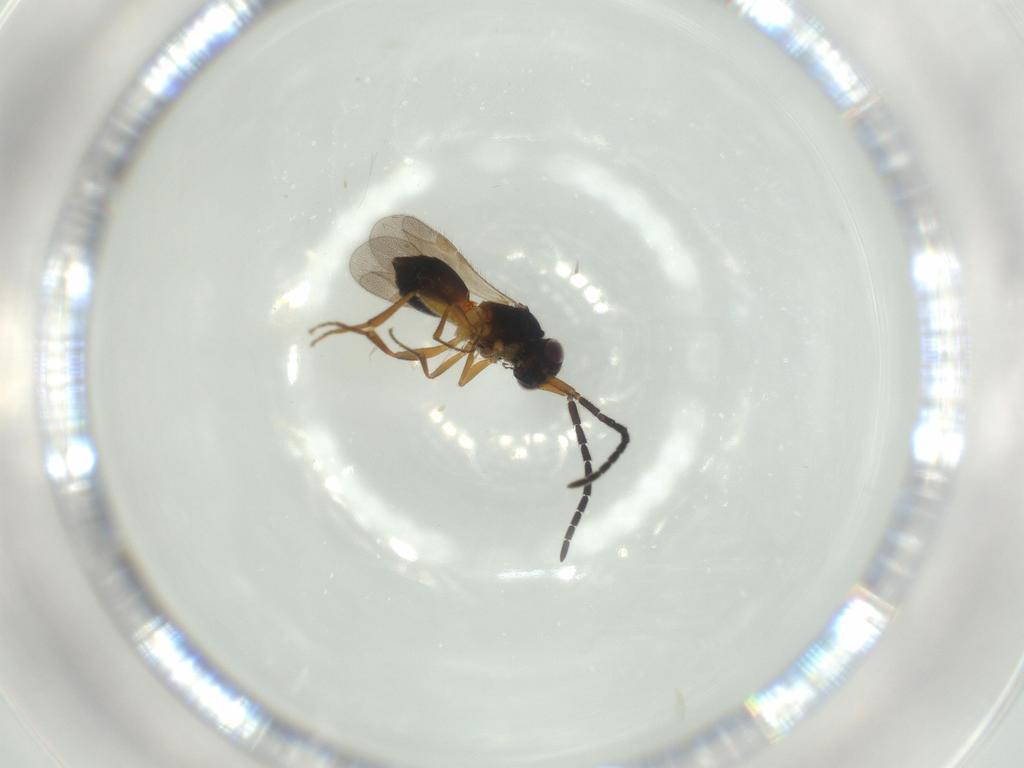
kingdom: Animalia
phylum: Arthropoda
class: Insecta
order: Hymenoptera
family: Megaspilidae
